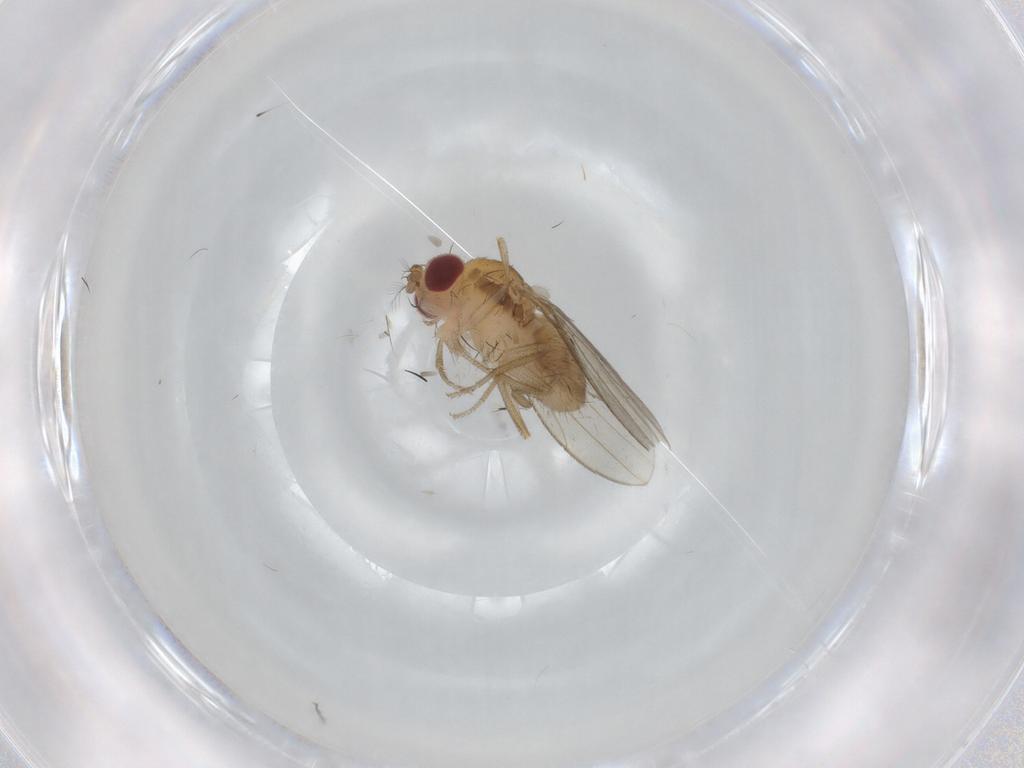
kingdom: Animalia
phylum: Arthropoda
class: Insecta
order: Diptera
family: Drosophilidae
